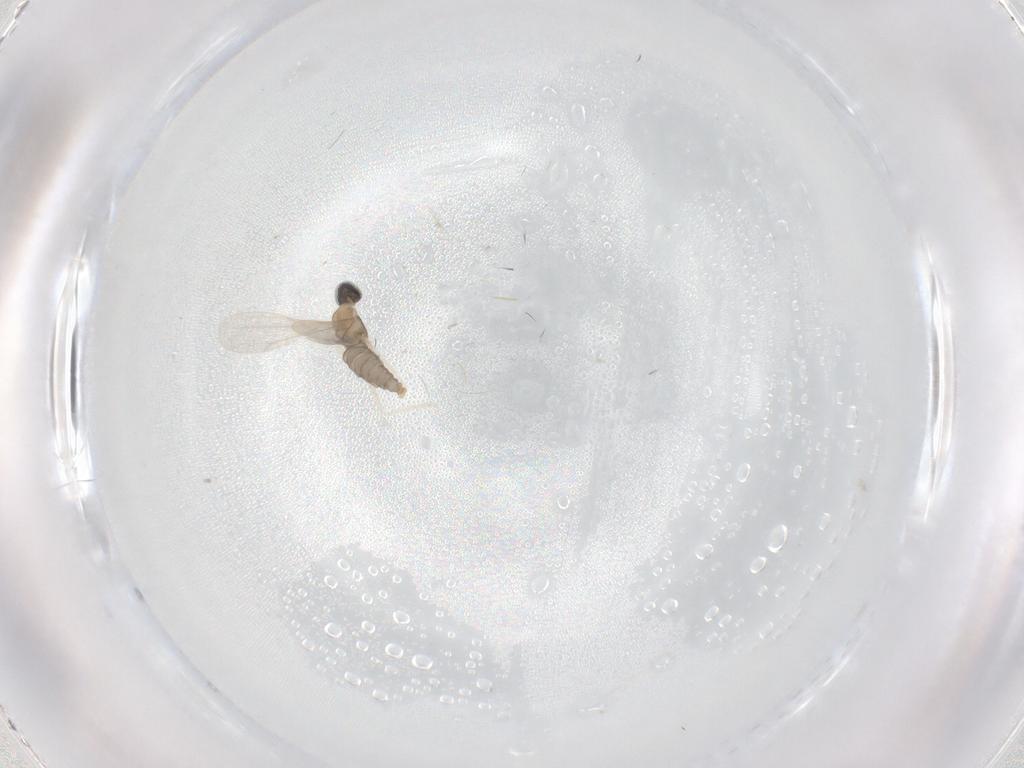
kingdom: Animalia
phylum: Arthropoda
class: Insecta
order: Diptera
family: Cecidomyiidae
